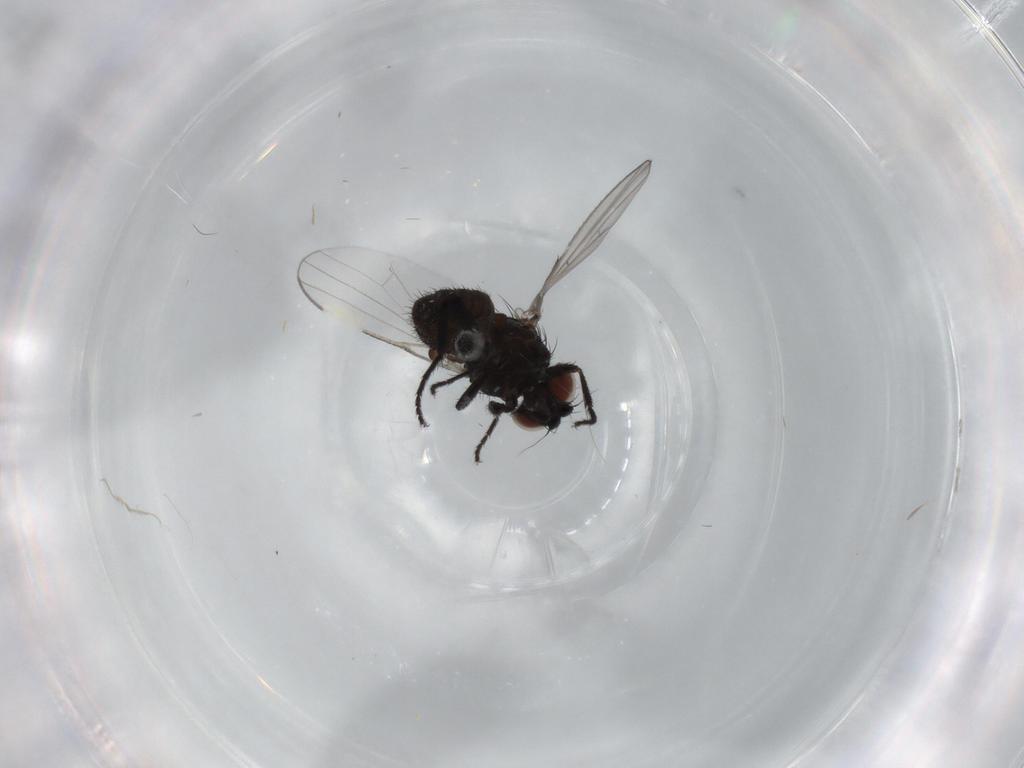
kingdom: Animalia
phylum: Arthropoda
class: Insecta
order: Diptera
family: Milichiidae
